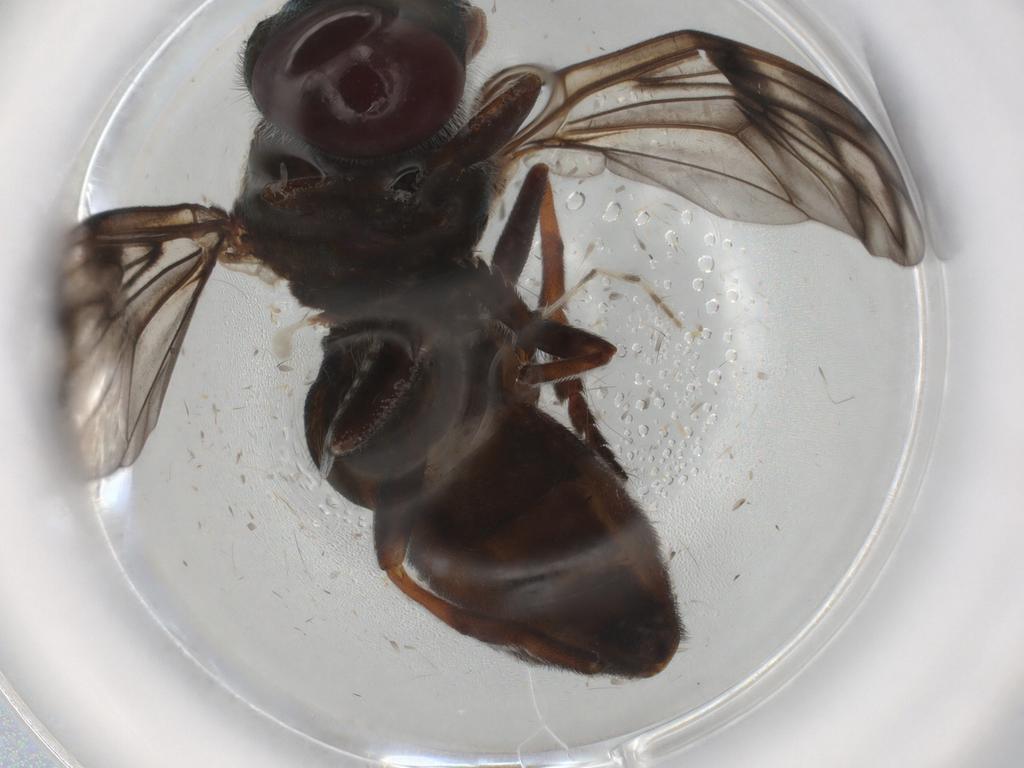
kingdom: Animalia
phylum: Arthropoda
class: Insecta
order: Diptera
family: Syrphidae
